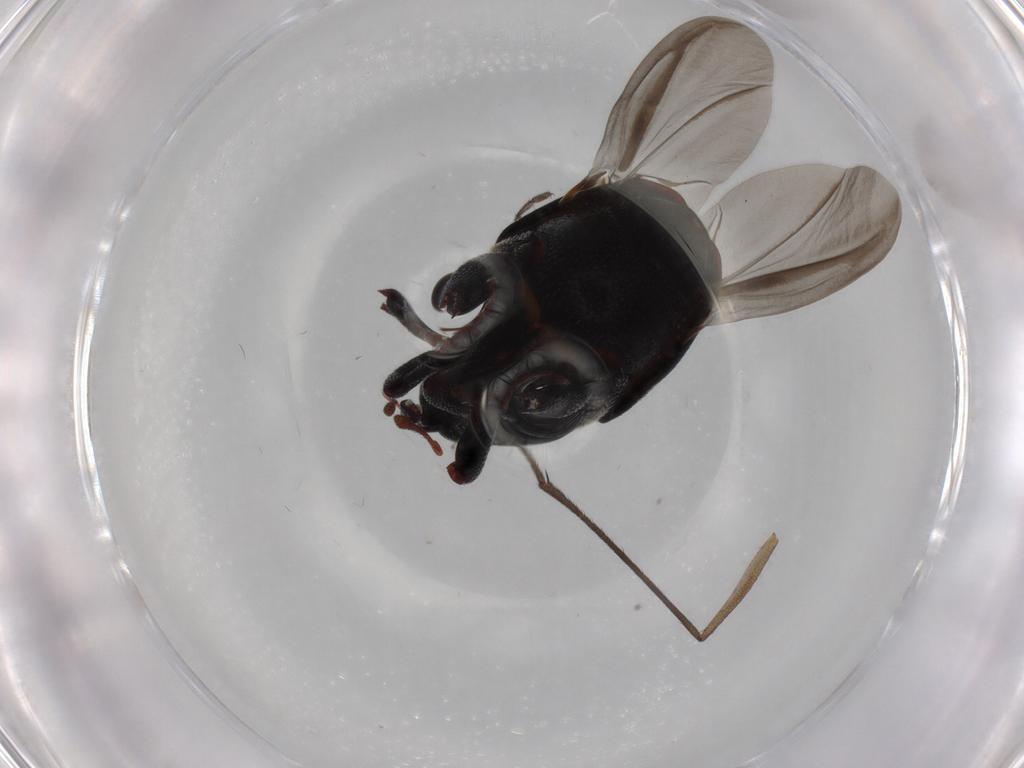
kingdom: Animalia
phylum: Arthropoda
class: Insecta
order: Coleoptera
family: Curculionidae
